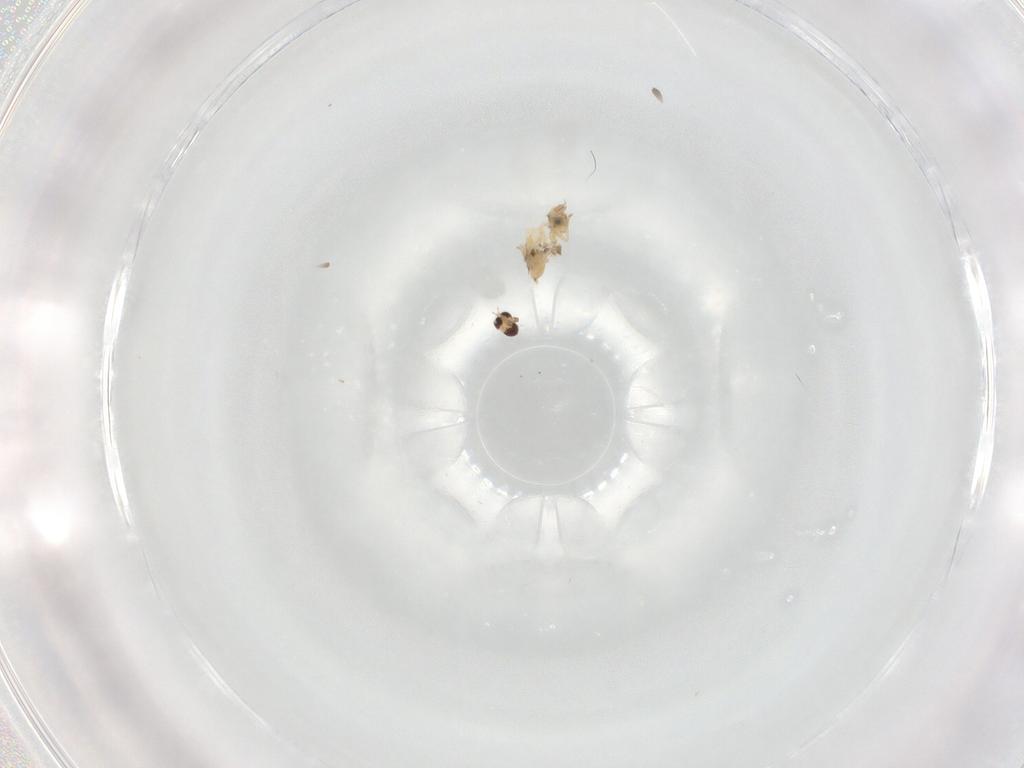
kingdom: Animalia
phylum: Arthropoda
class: Insecta
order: Diptera
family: Cecidomyiidae
